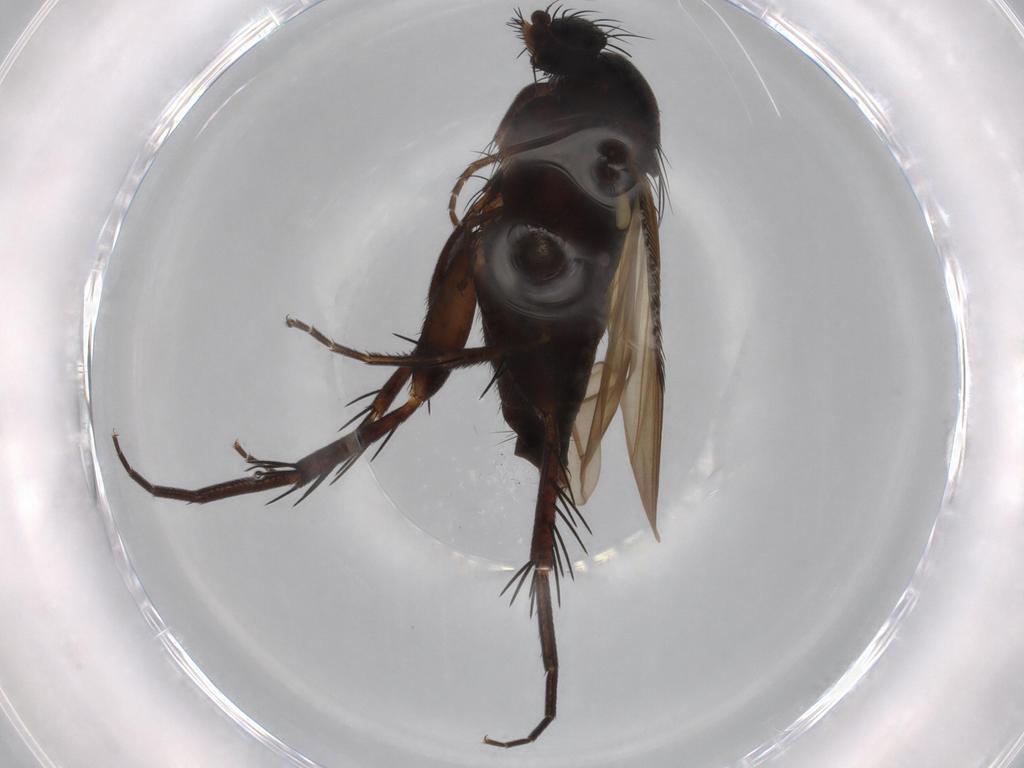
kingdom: Animalia
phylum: Arthropoda
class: Insecta
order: Diptera
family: Phoridae
